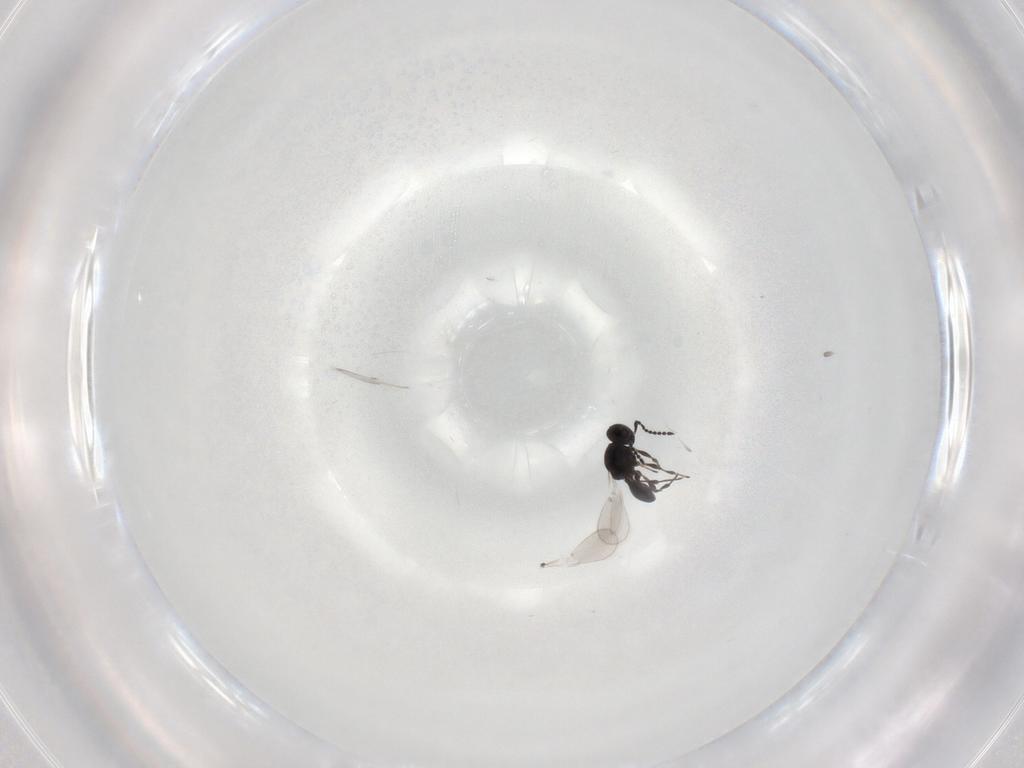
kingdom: Animalia
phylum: Arthropoda
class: Insecta
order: Hymenoptera
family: Platygastridae
